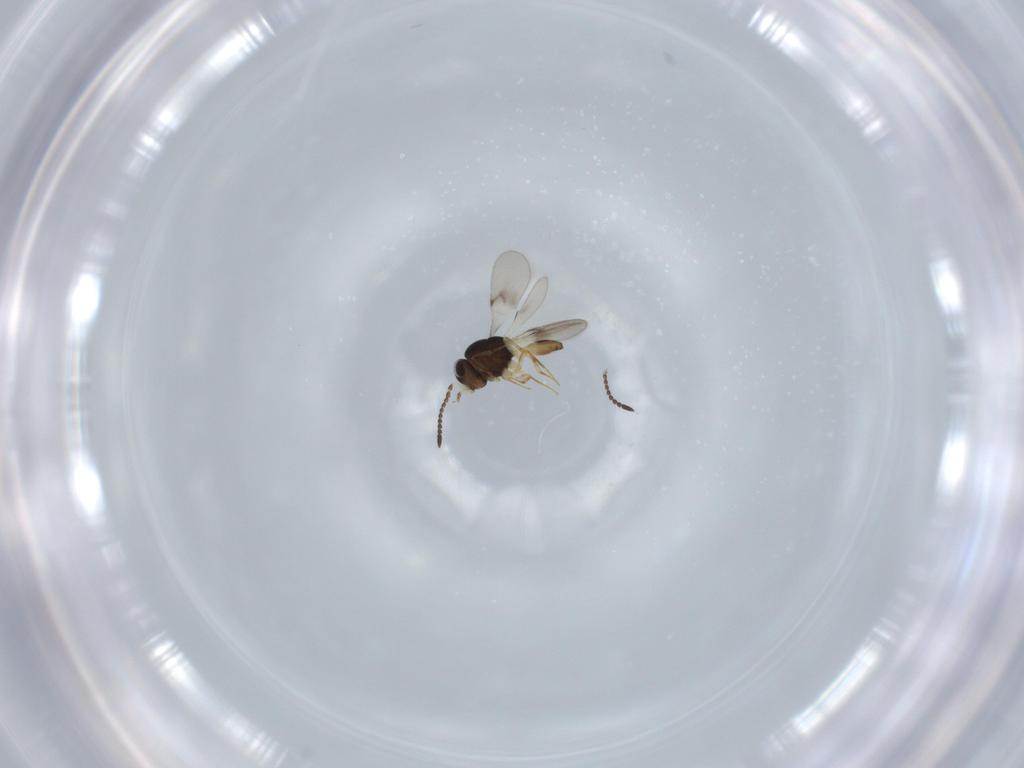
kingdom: Animalia
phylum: Arthropoda
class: Insecta
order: Hymenoptera
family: Scelionidae
